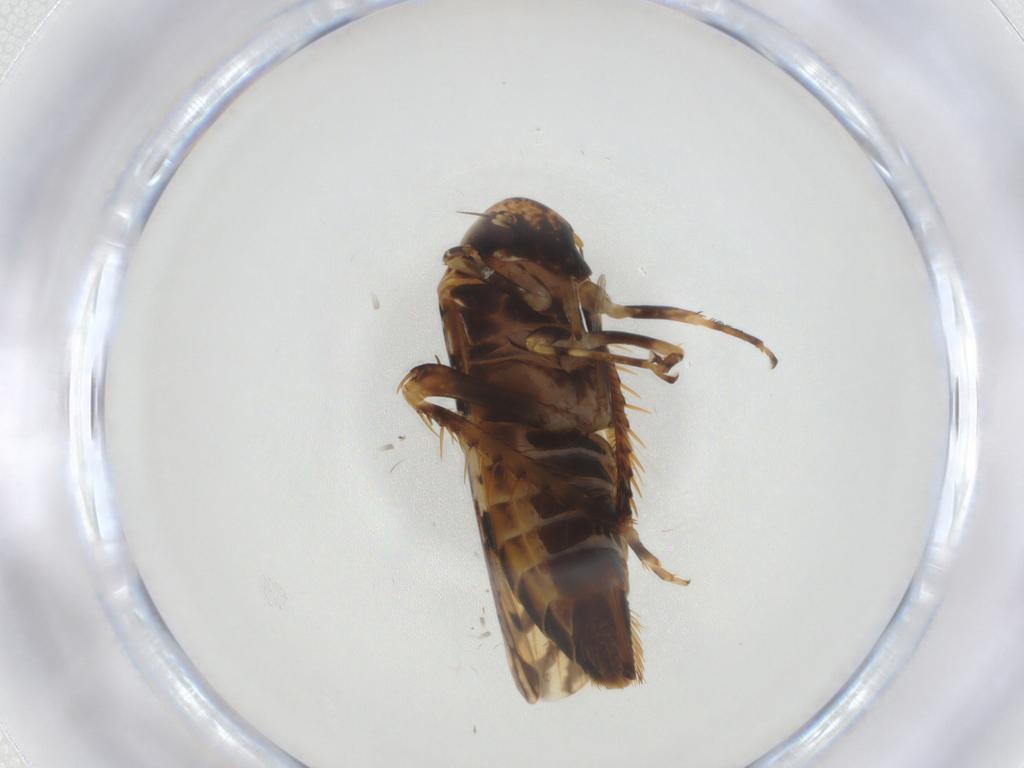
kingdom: Animalia
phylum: Arthropoda
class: Insecta
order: Hemiptera
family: Cicadellidae
